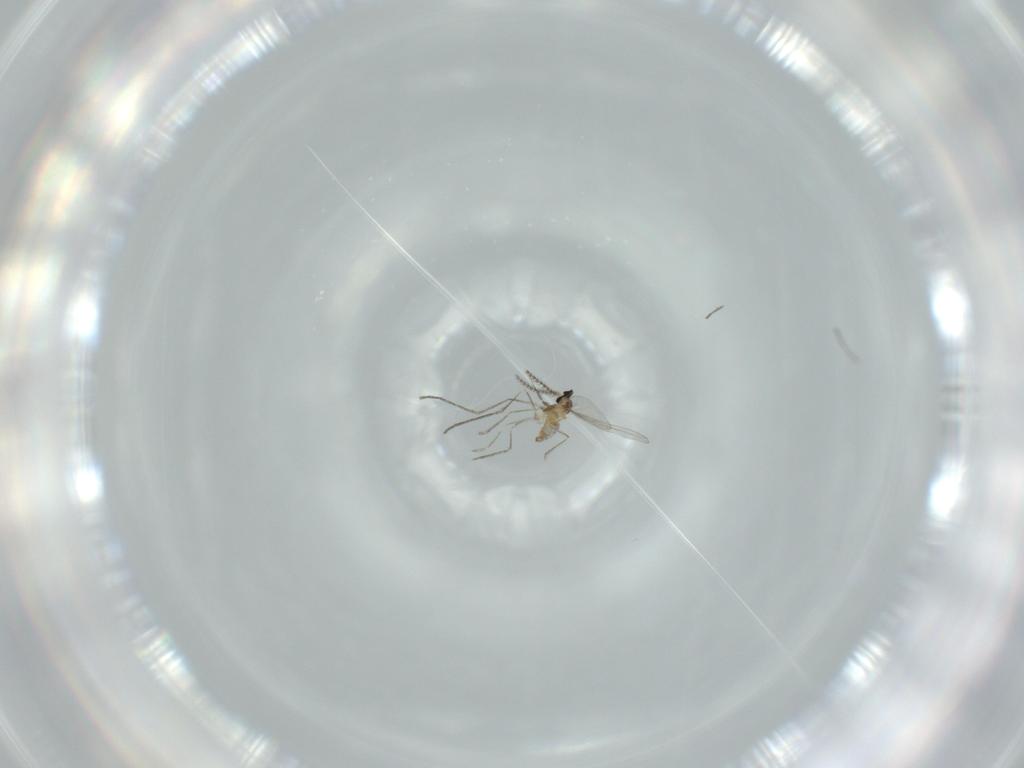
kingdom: Animalia
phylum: Arthropoda
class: Insecta
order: Diptera
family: Cecidomyiidae
